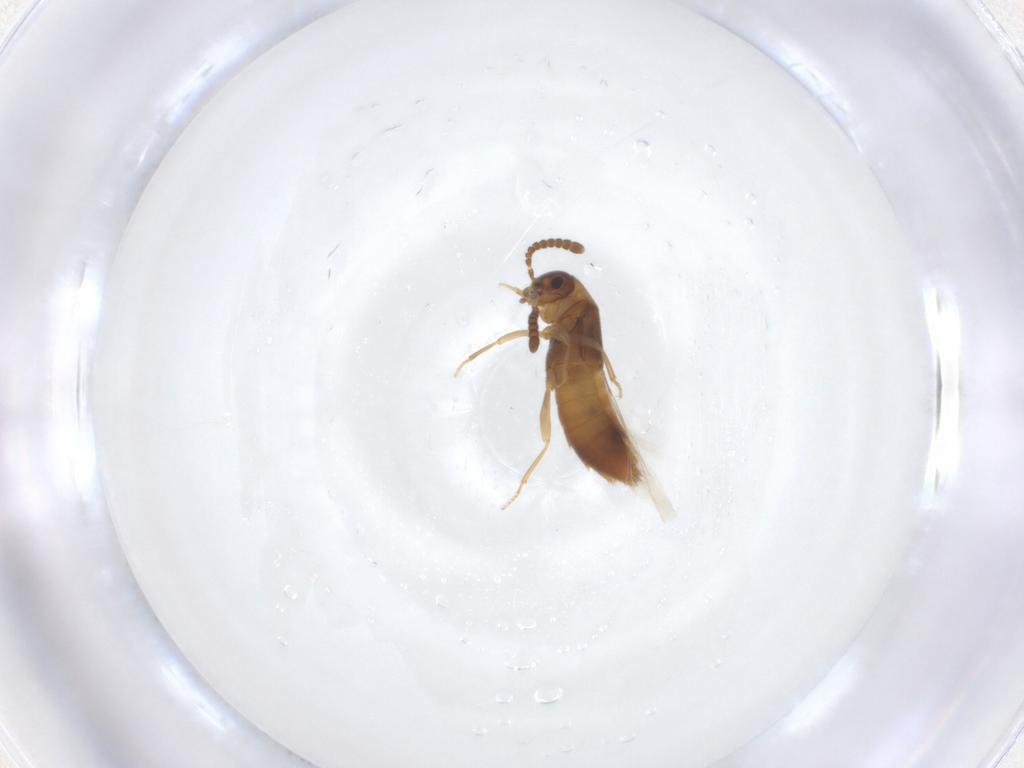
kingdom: Animalia
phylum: Arthropoda
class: Insecta
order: Coleoptera
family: Staphylinidae
